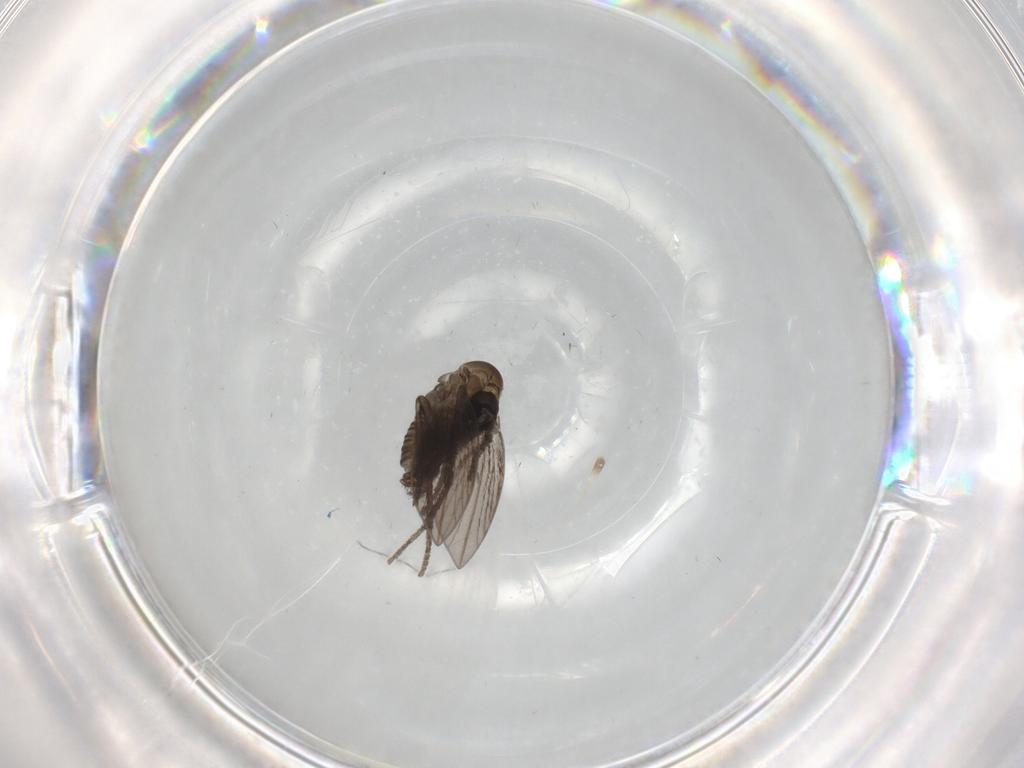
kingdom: Animalia
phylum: Arthropoda
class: Insecta
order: Diptera
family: Psychodidae
